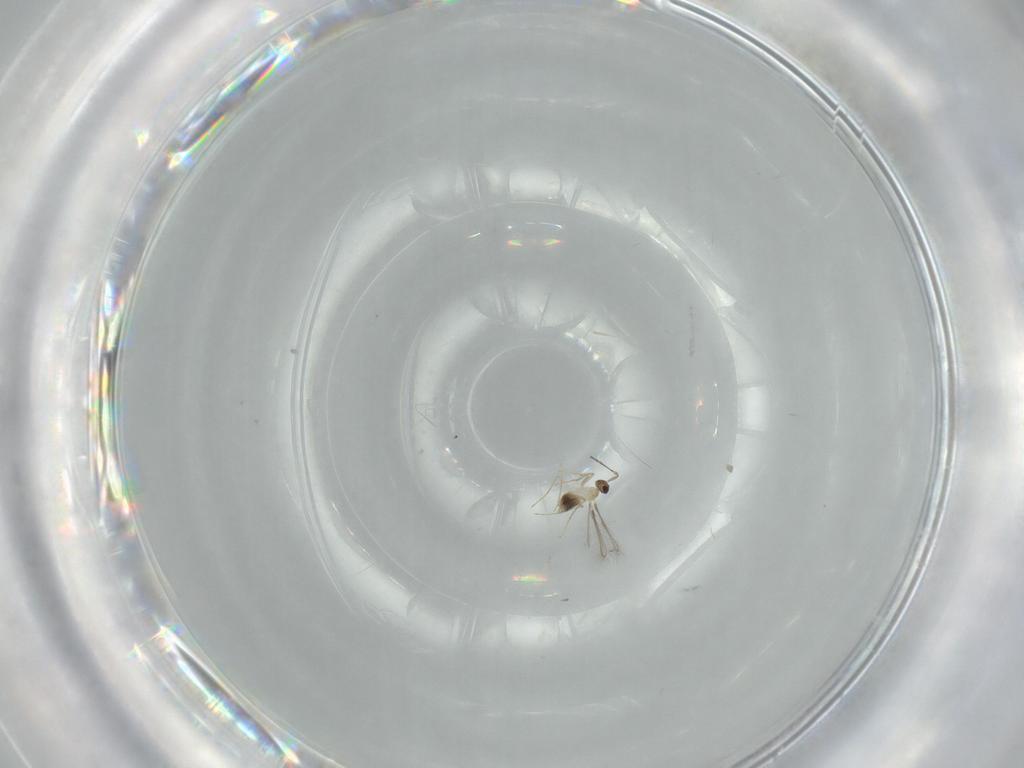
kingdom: Animalia
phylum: Arthropoda
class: Insecta
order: Hymenoptera
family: Mymaridae
